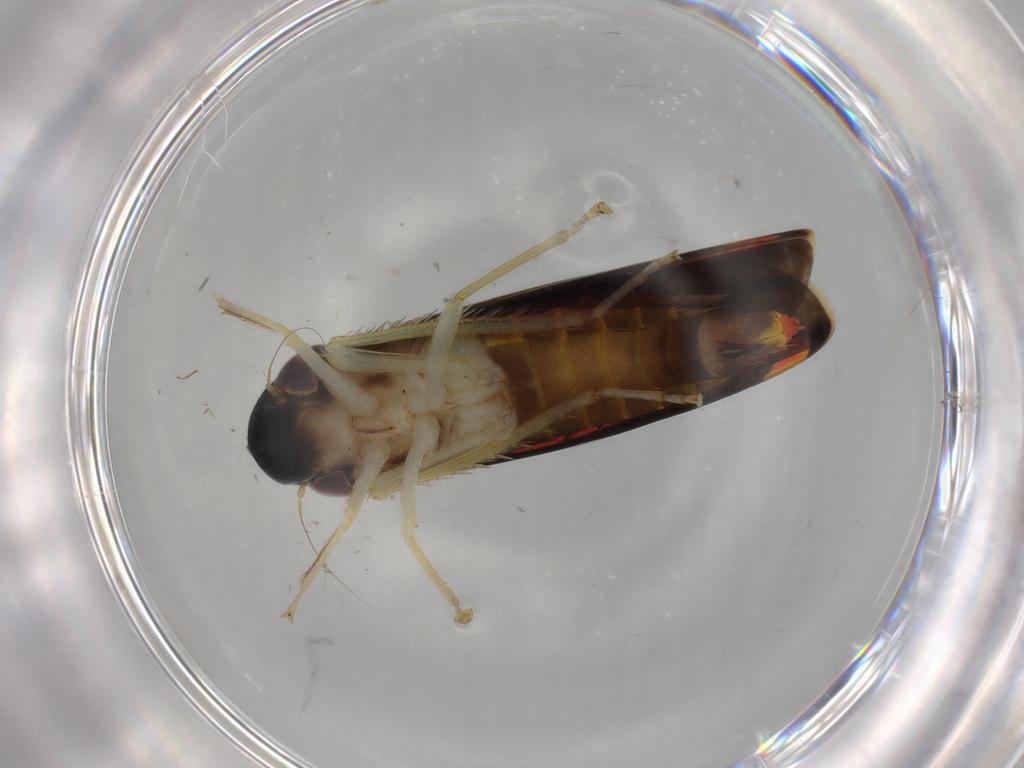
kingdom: Animalia
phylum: Arthropoda
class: Insecta
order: Hemiptera
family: Cicadellidae
